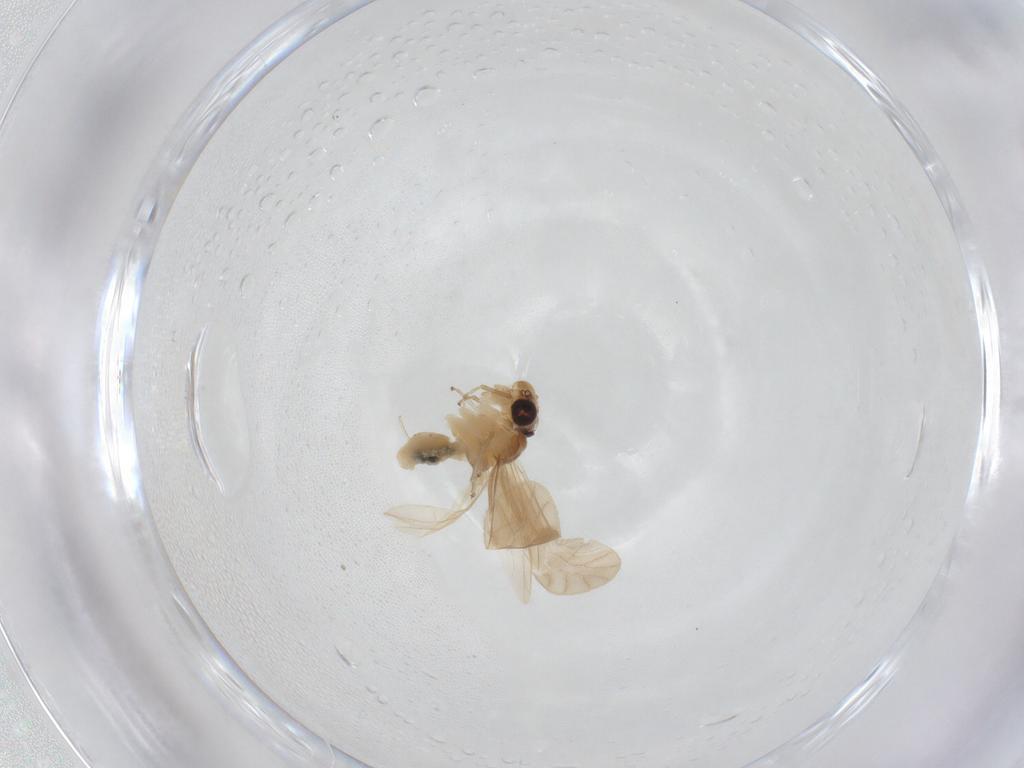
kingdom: Animalia
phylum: Arthropoda
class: Insecta
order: Psocodea
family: Caeciliusidae
